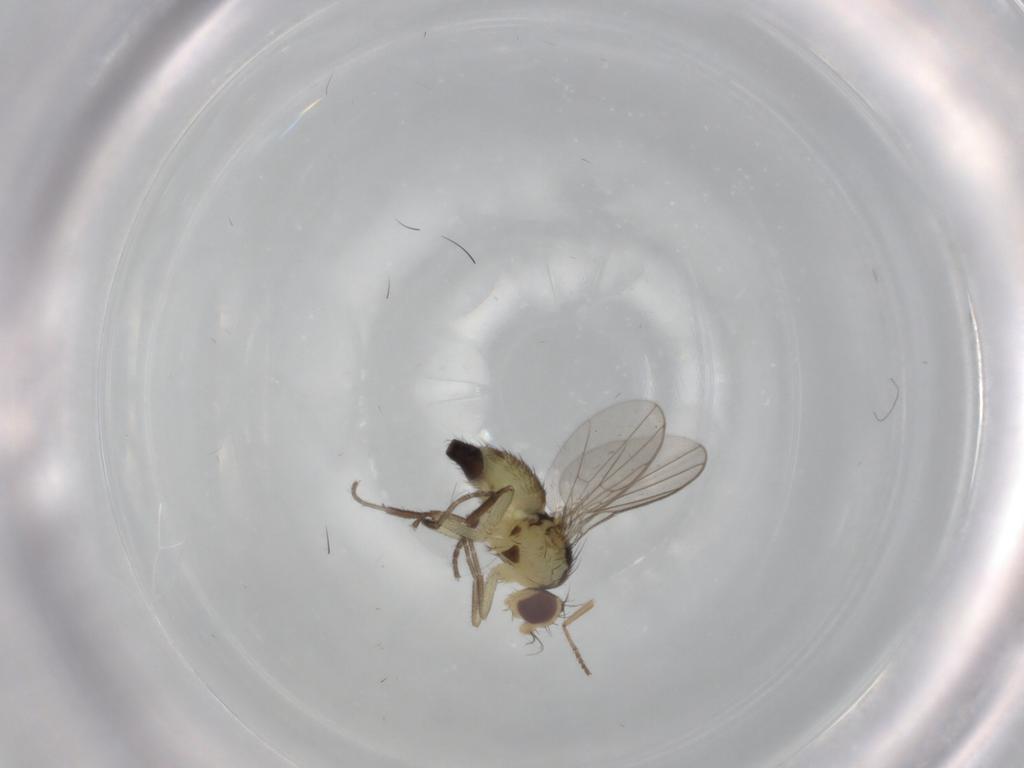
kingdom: Animalia
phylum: Arthropoda
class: Insecta
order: Diptera
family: Agromyzidae
